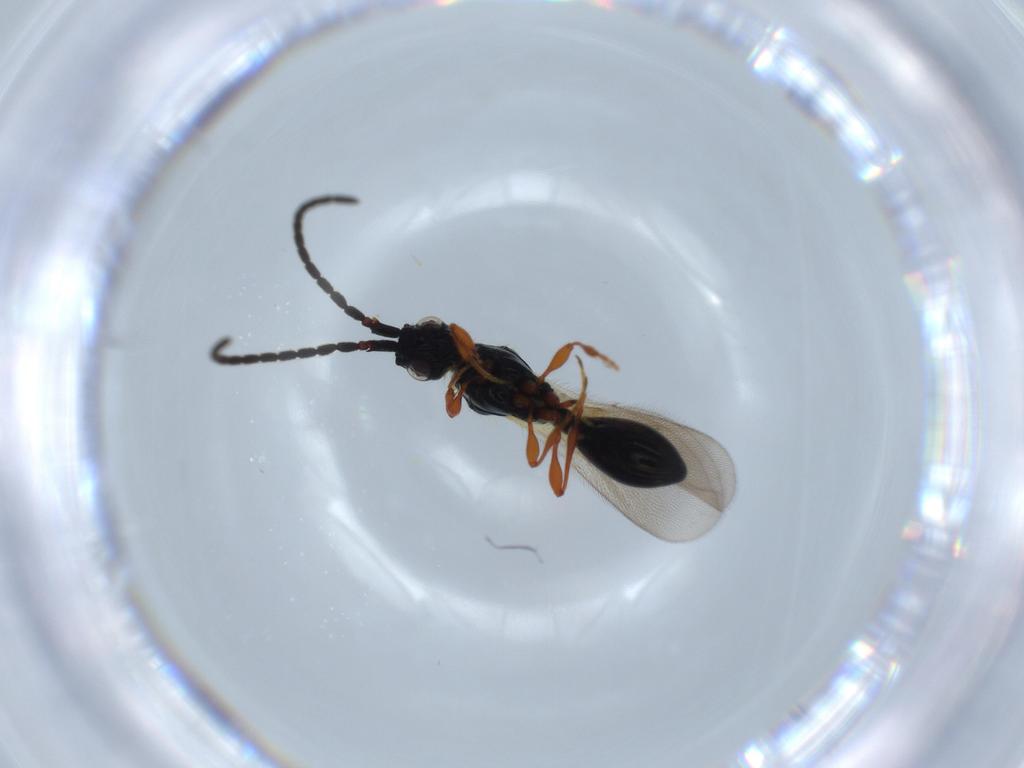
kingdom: Animalia
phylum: Arthropoda
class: Insecta
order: Hymenoptera
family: Diapriidae
